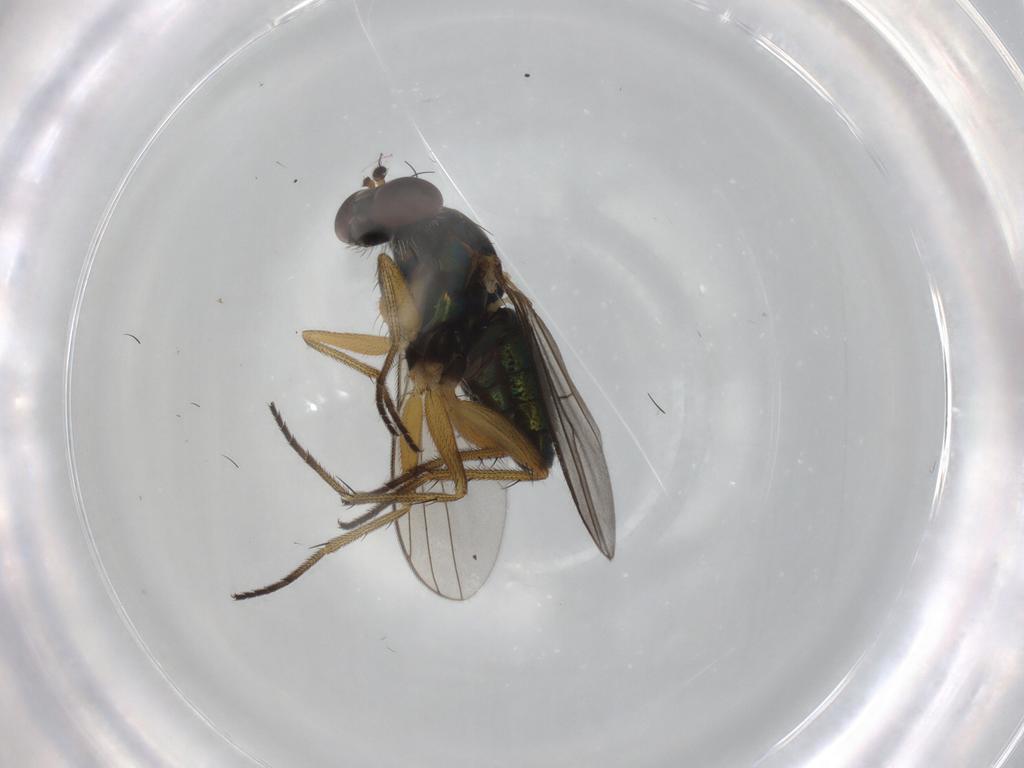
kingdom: Animalia
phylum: Arthropoda
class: Insecta
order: Diptera
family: Dolichopodidae
